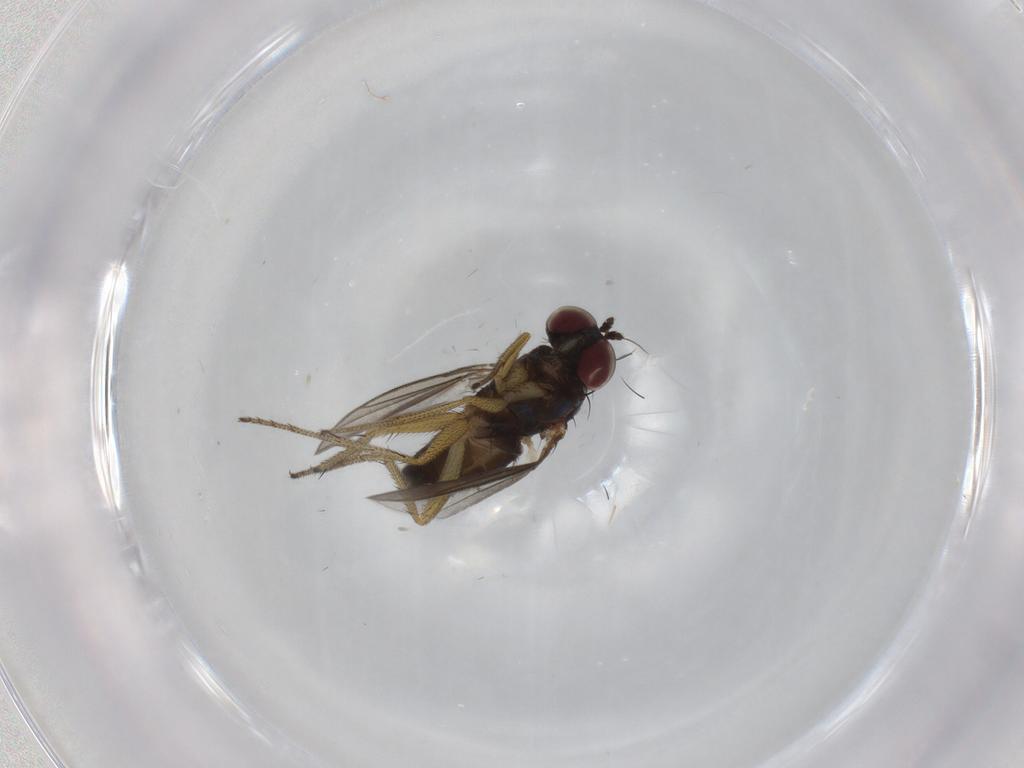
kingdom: Animalia
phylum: Arthropoda
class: Insecta
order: Diptera
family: Dolichopodidae
